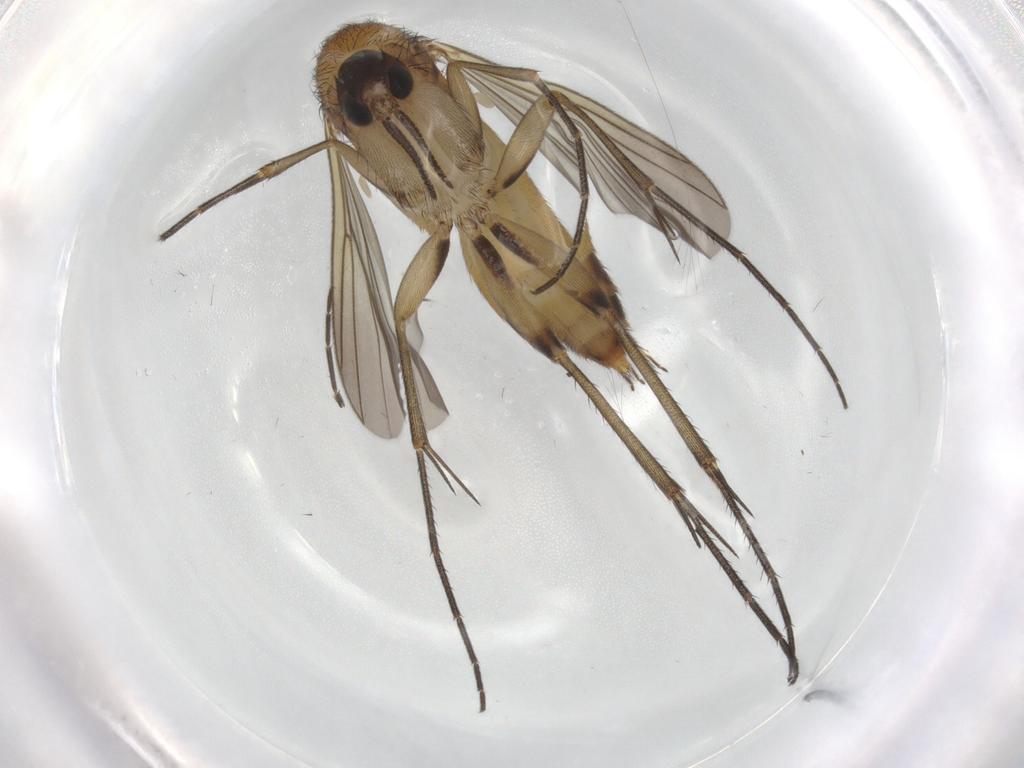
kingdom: Animalia
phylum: Arthropoda
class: Insecta
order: Diptera
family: Mycetophilidae
